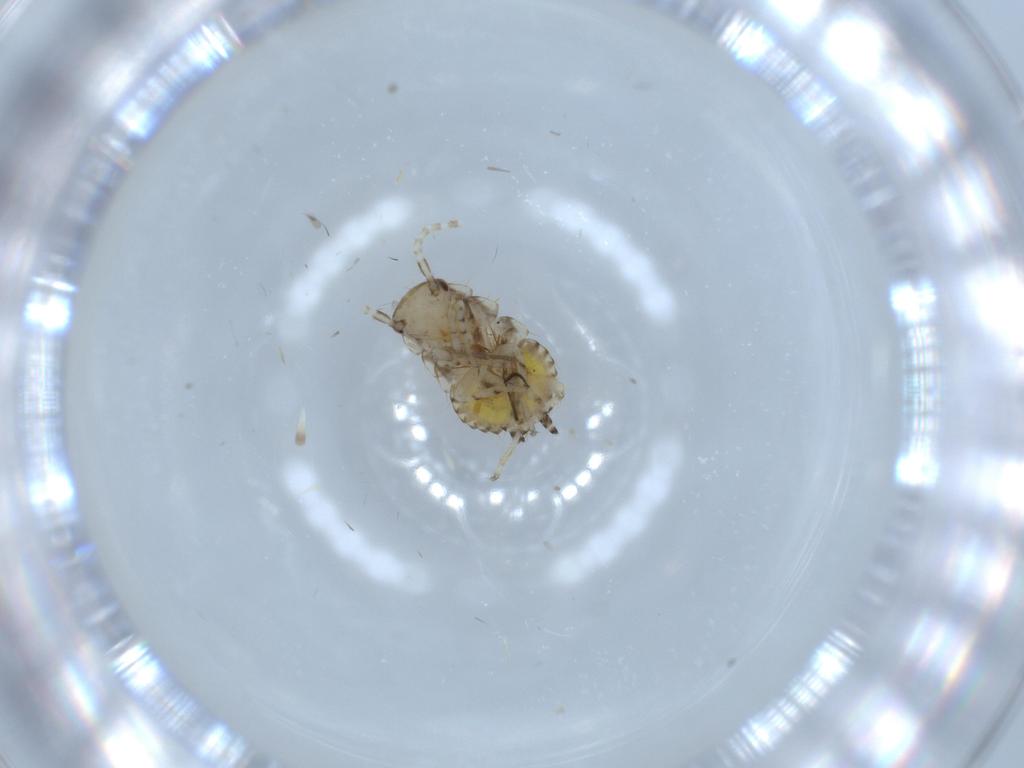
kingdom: Animalia
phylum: Arthropoda
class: Insecta
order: Blattodea
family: Ectobiidae
